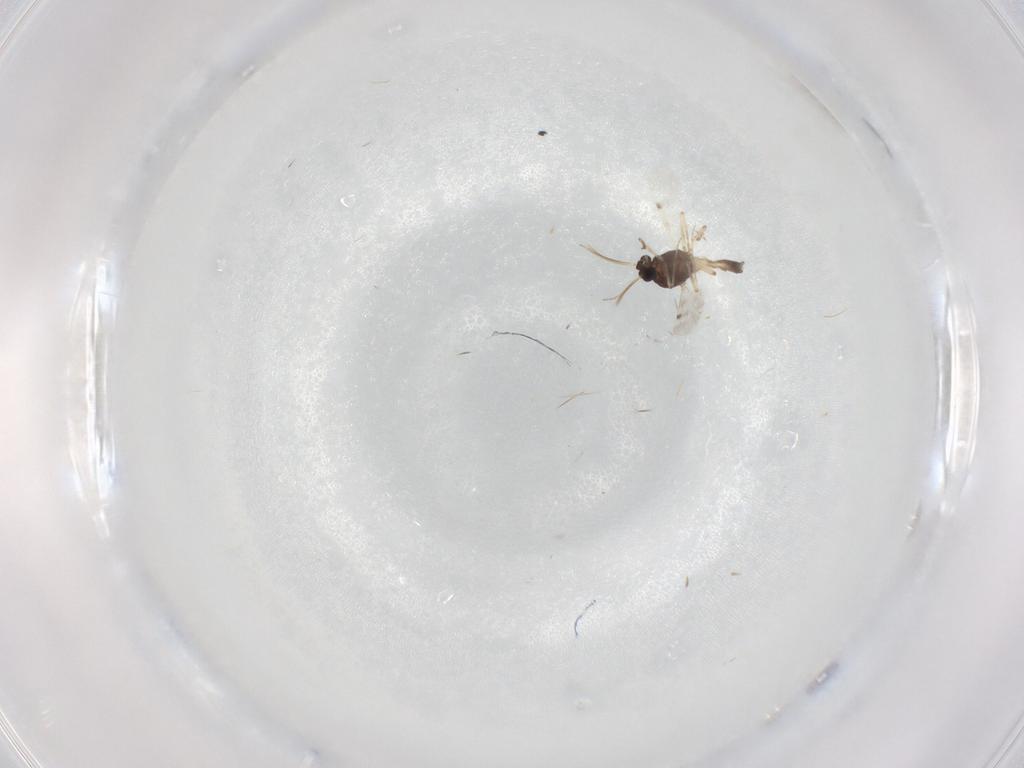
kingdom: Animalia
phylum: Arthropoda
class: Insecta
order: Diptera
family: Ceratopogonidae
